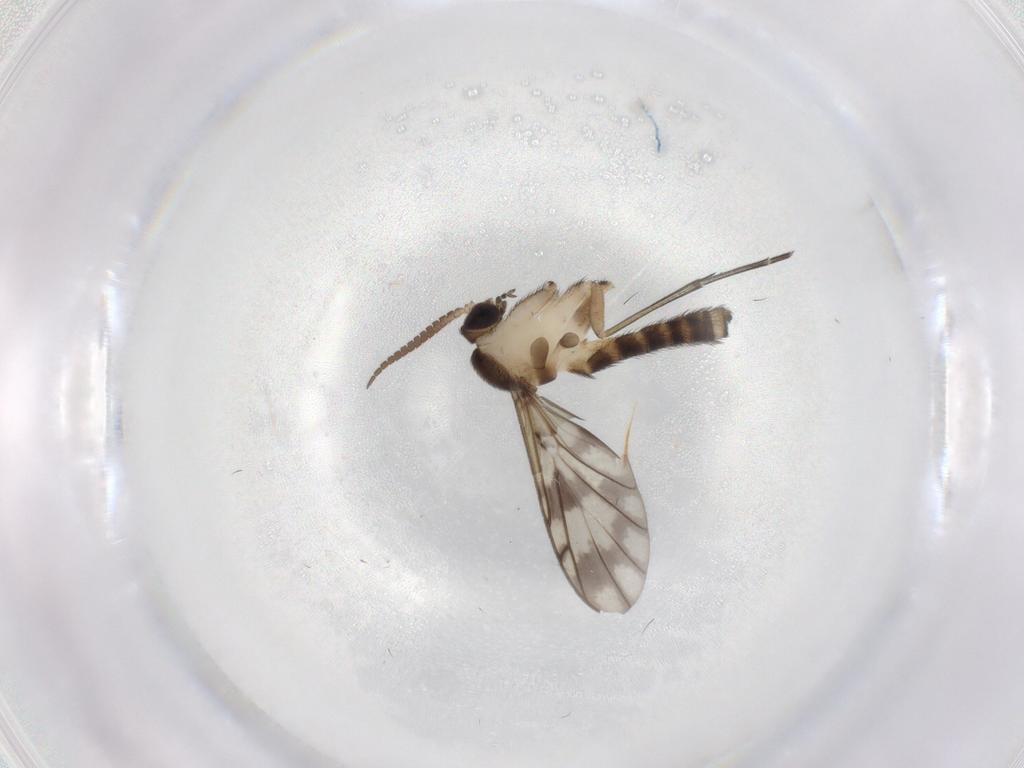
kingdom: Animalia
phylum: Arthropoda
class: Insecta
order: Diptera
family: Keroplatidae
